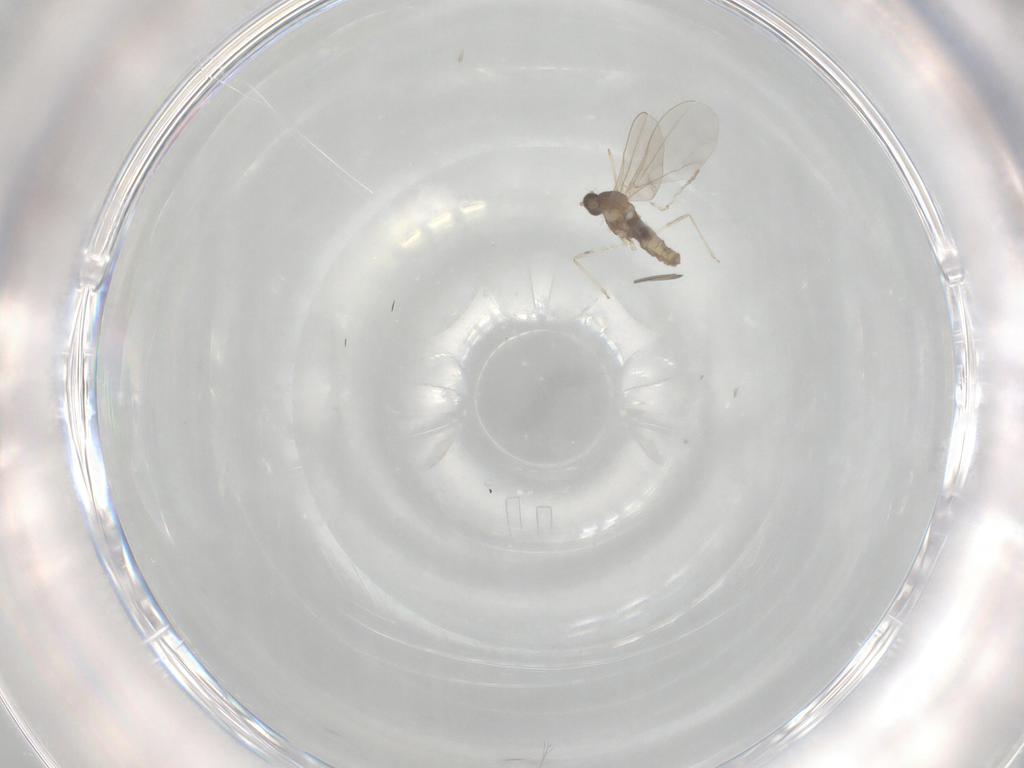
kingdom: Animalia
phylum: Arthropoda
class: Insecta
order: Diptera
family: Cecidomyiidae
